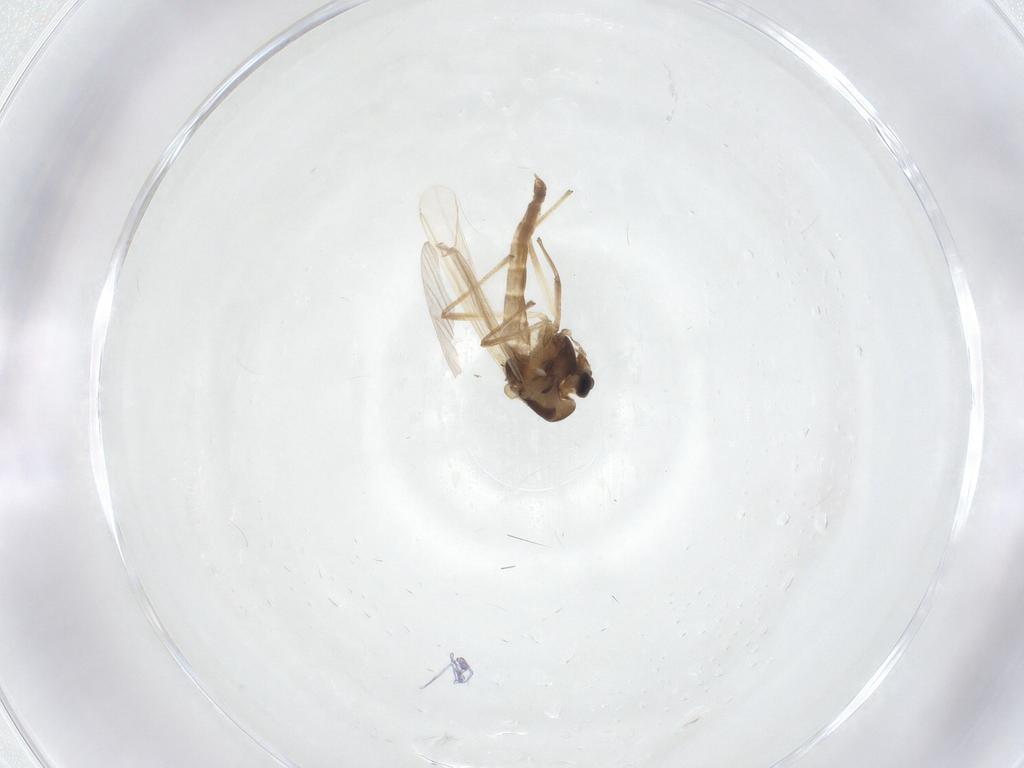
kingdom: Animalia
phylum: Arthropoda
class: Insecta
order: Diptera
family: Chironomidae
